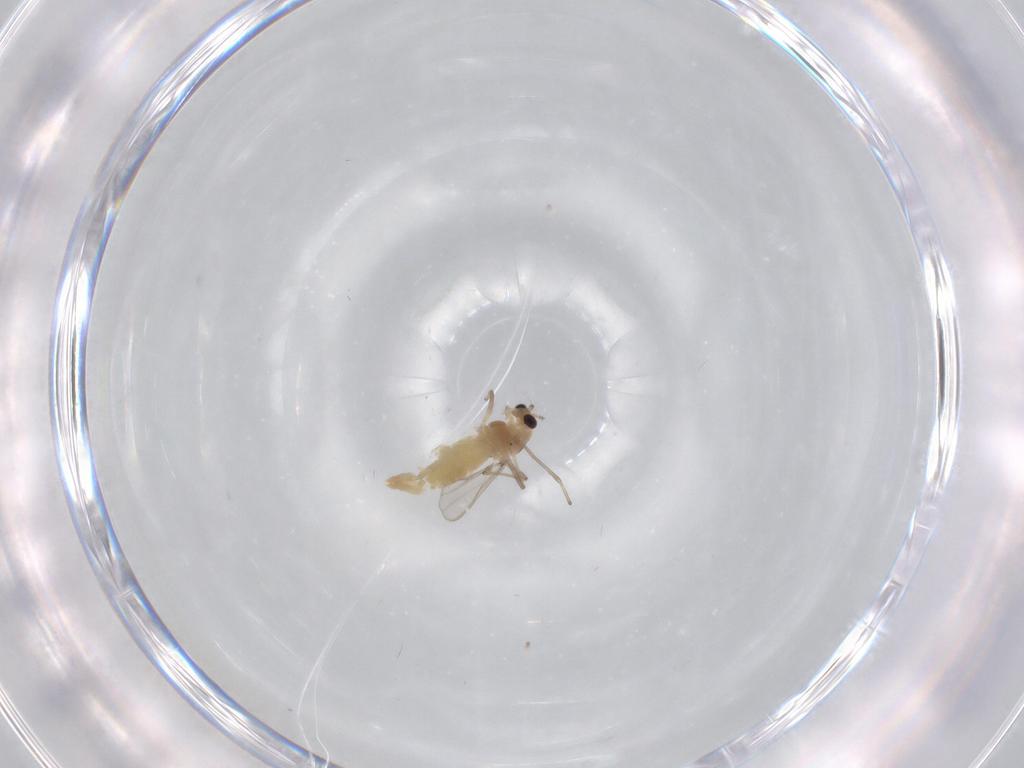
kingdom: Animalia
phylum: Arthropoda
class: Insecta
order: Diptera
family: Chironomidae
